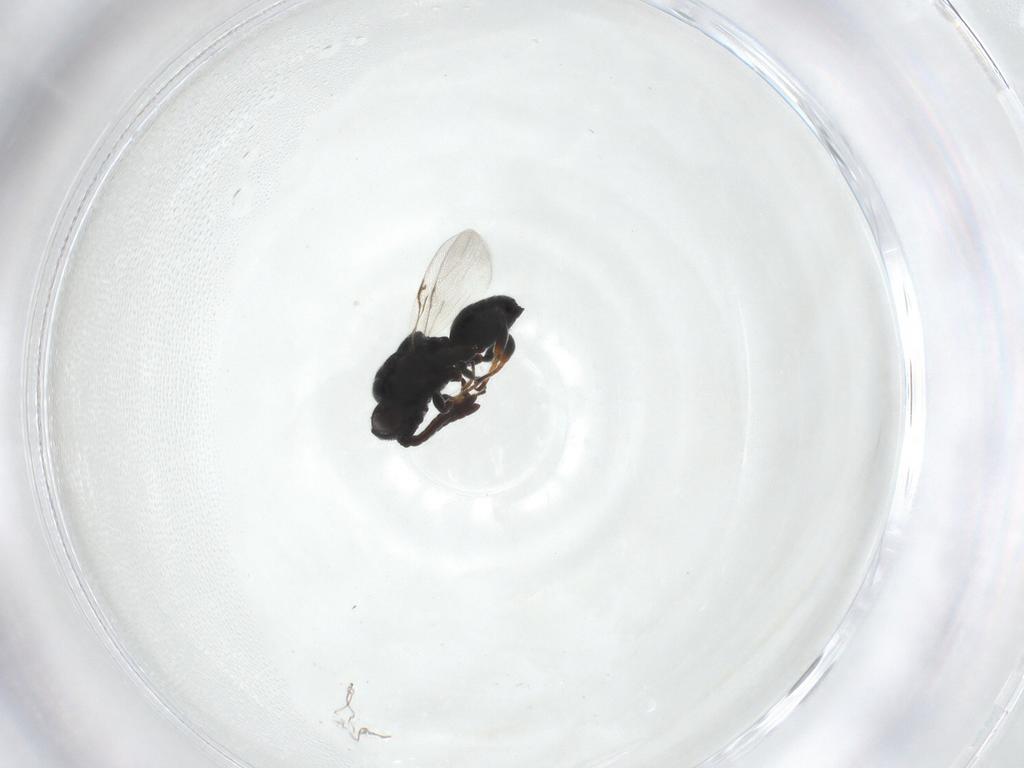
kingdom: Animalia
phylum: Arthropoda
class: Insecta
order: Hymenoptera
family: Chalcididae
